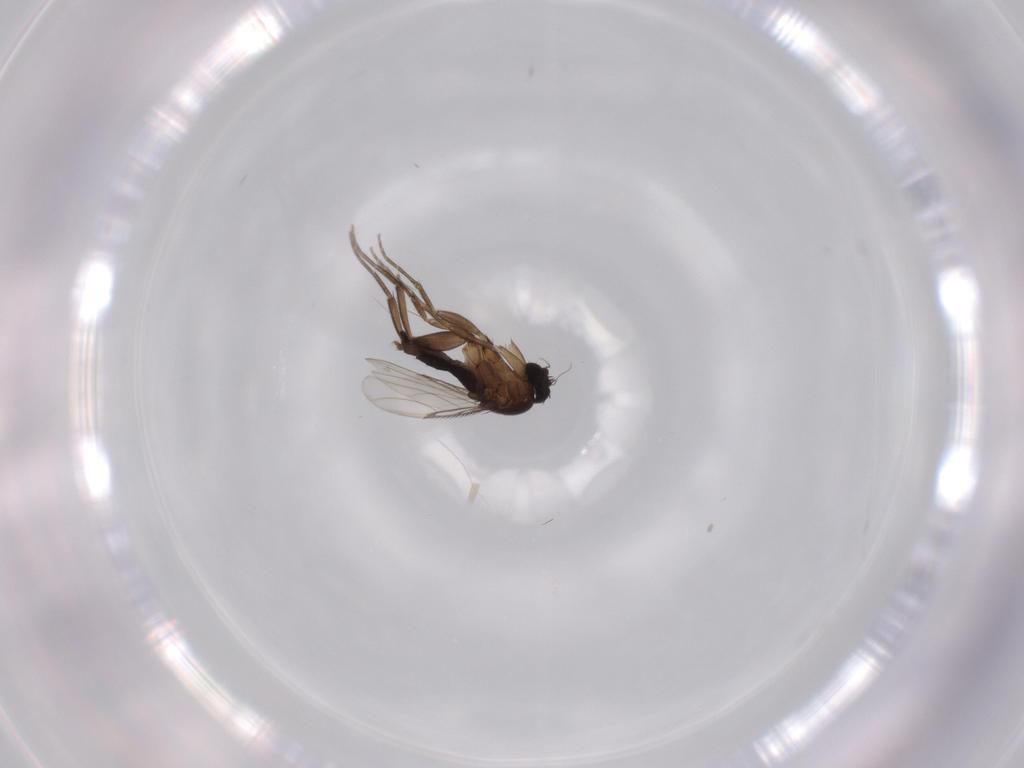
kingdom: Animalia
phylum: Arthropoda
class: Insecta
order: Diptera
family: Phoridae
